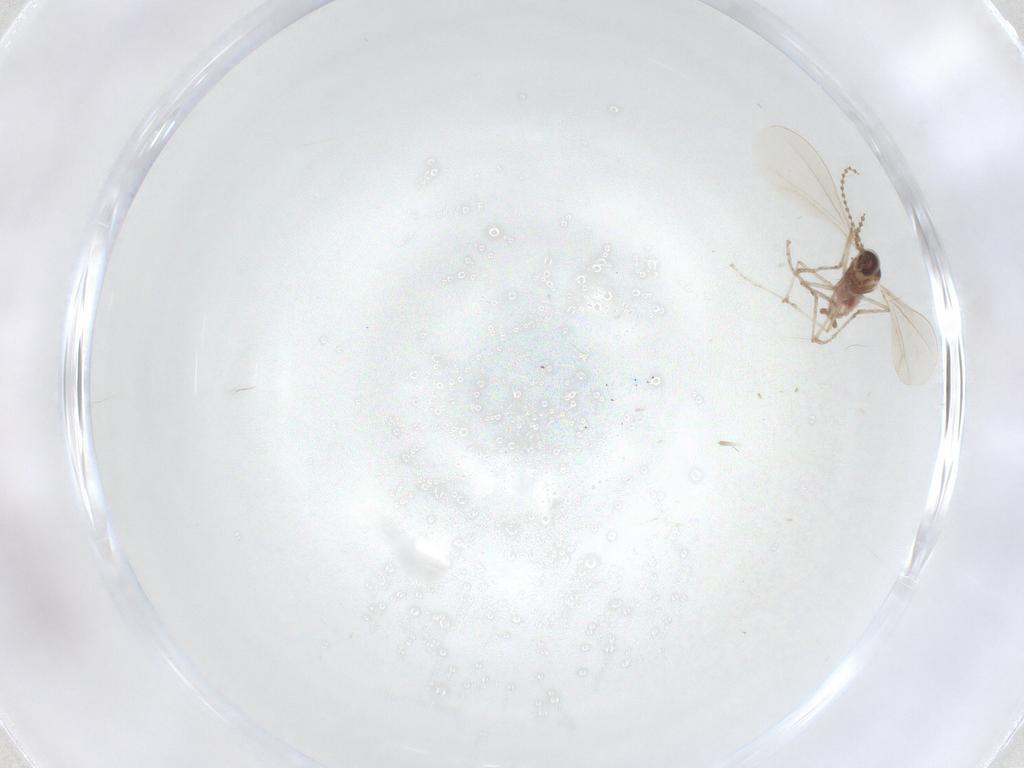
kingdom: Animalia
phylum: Arthropoda
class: Insecta
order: Diptera
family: Cecidomyiidae
